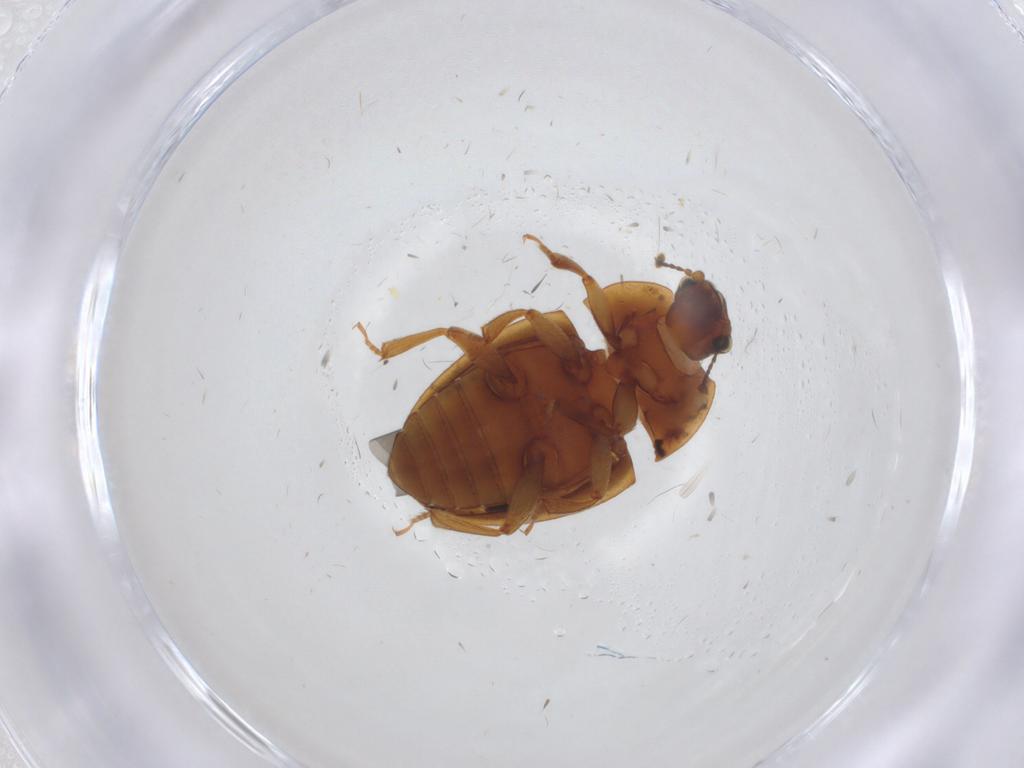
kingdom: Animalia
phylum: Arthropoda
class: Insecta
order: Coleoptera
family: Nitidulidae
